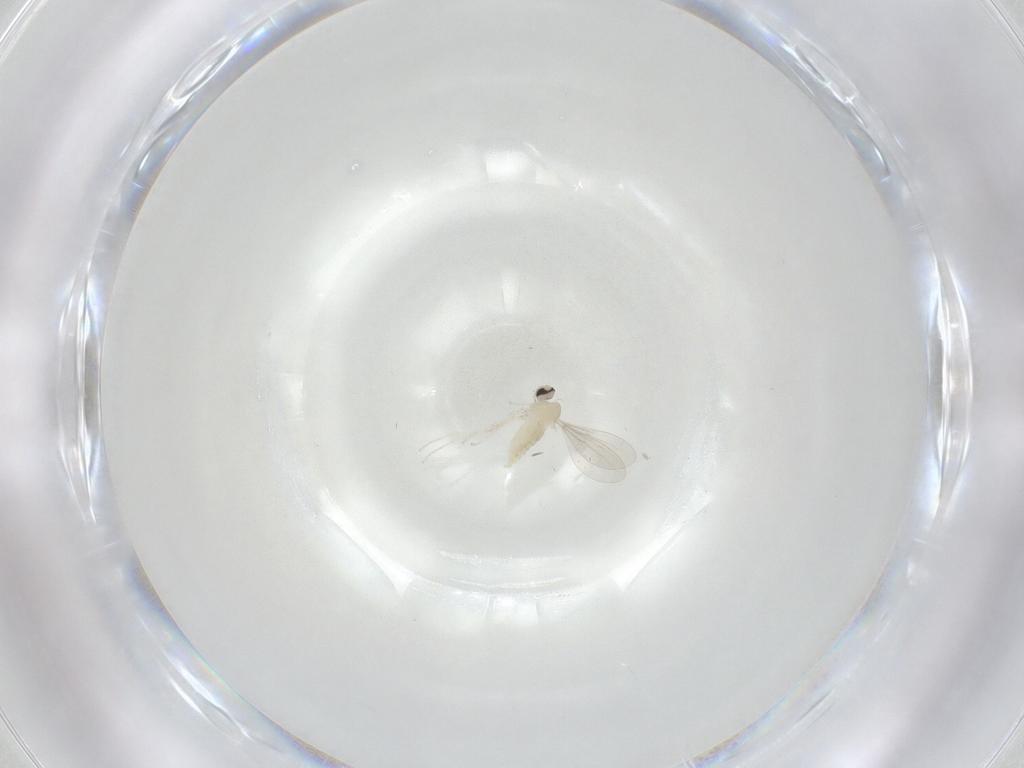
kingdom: Animalia
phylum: Arthropoda
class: Insecta
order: Diptera
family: Cecidomyiidae
